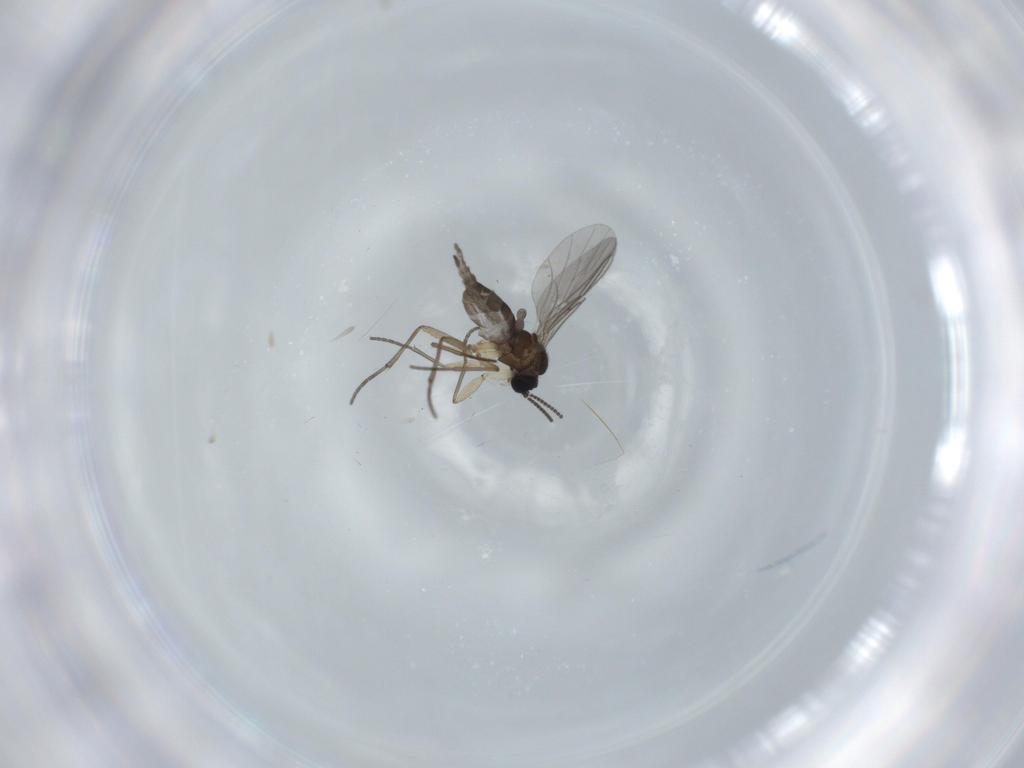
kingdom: Animalia
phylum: Arthropoda
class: Insecta
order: Diptera
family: Sciaridae
